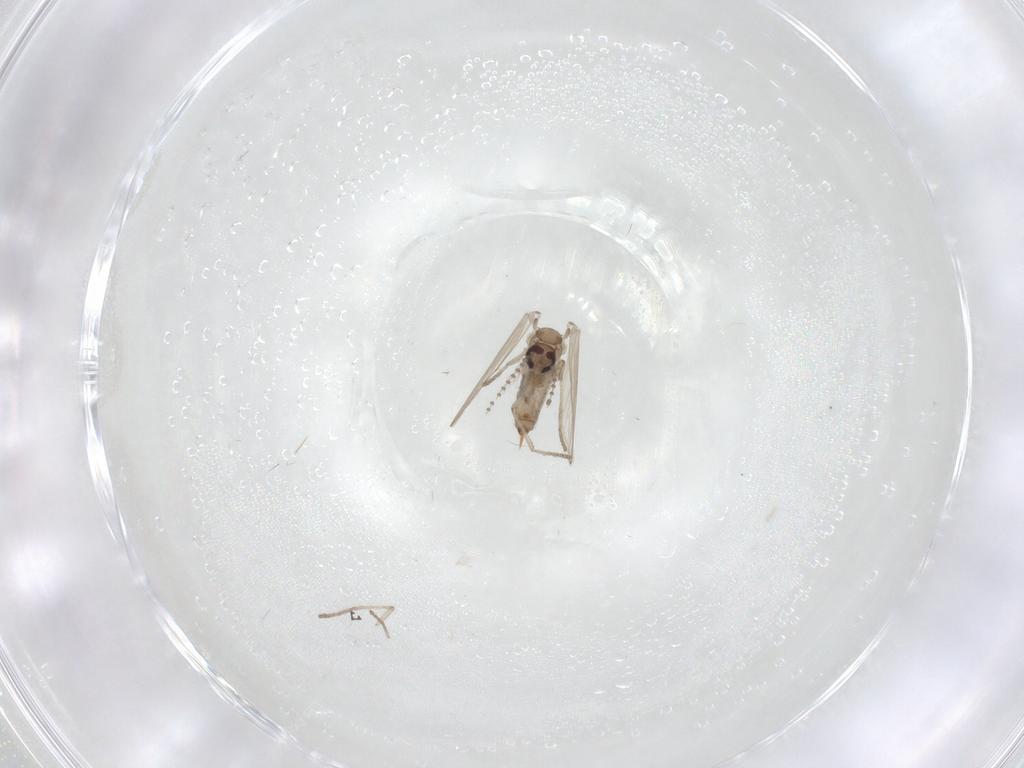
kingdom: Animalia
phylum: Arthropoda
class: Insecta
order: Diptera
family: Psychodidae
